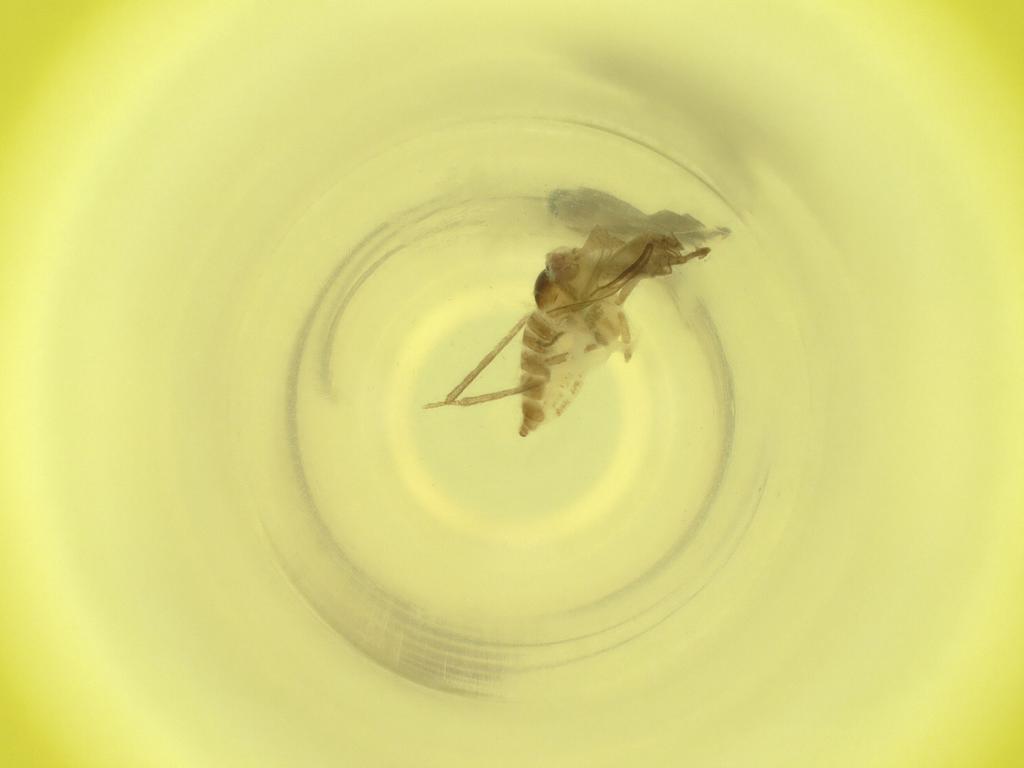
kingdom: Animalia
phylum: Arthropoda
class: Insecta
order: Diptera
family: Cecidomyiidae
